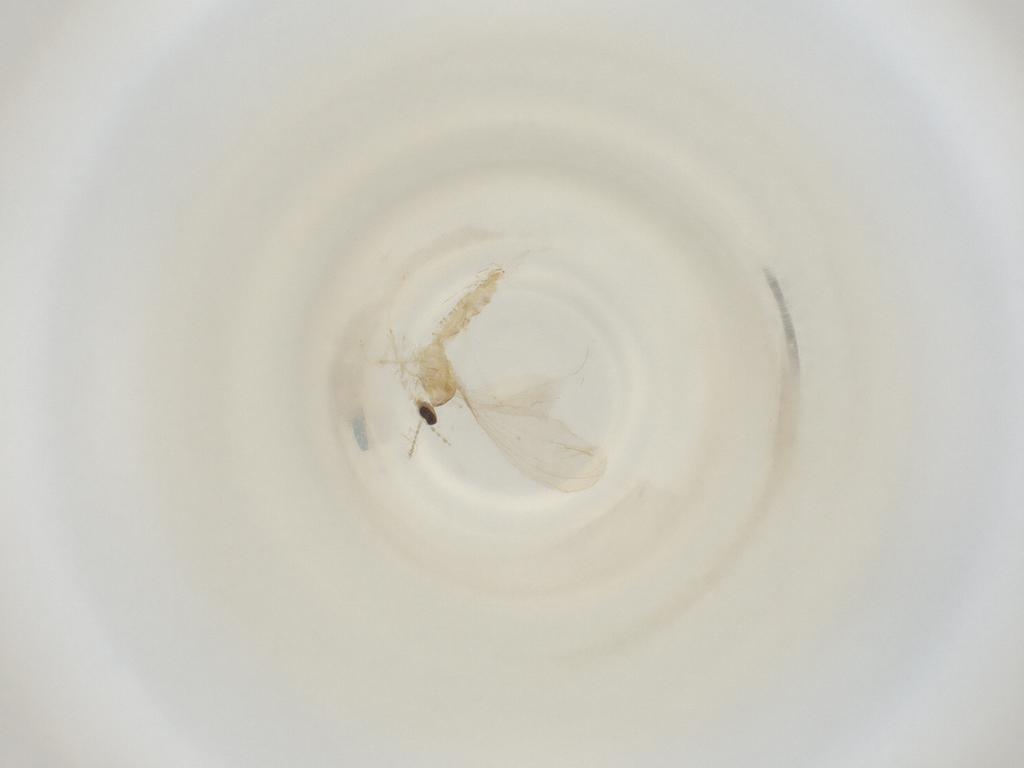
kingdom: Animalia
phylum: Arthropoda
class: Insecta
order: Diptera
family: Cecidomyiidae
